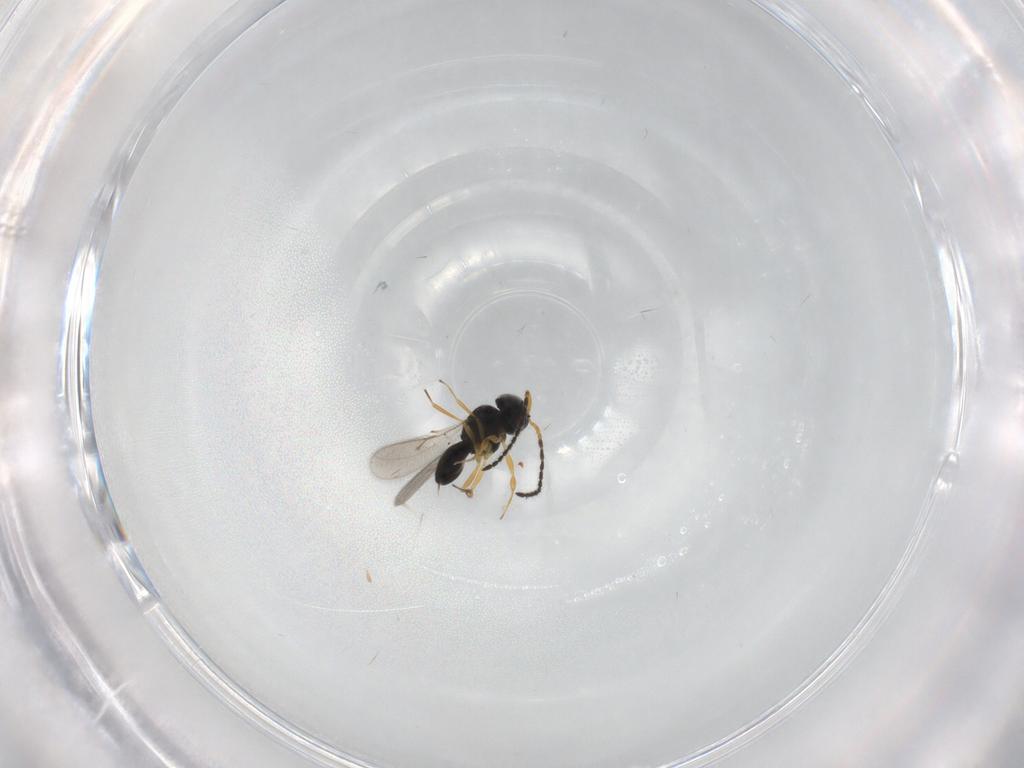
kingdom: Animalia
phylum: Arthropoda
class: Insecta
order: Hymenoptera
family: Scelionidae
